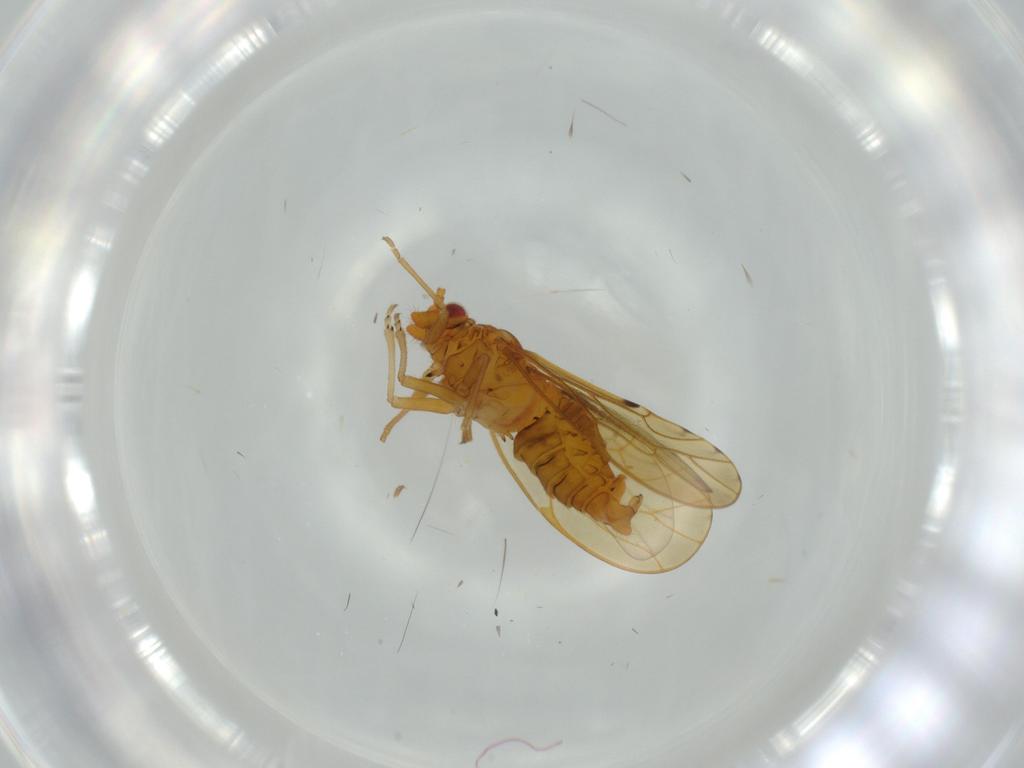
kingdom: Animalia
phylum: Arthropoda
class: Insecta
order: Hemiptera
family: Cercopidae
